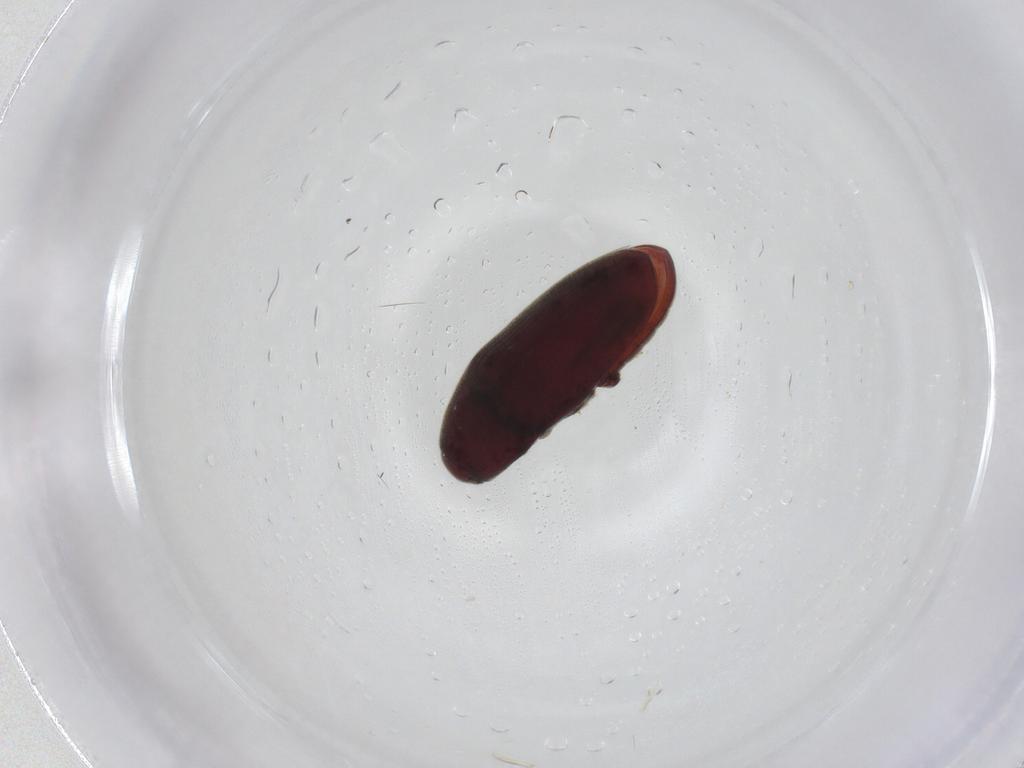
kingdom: Animalia
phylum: Arthropoda
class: Insecta
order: Coleoptera
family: Throscidae
